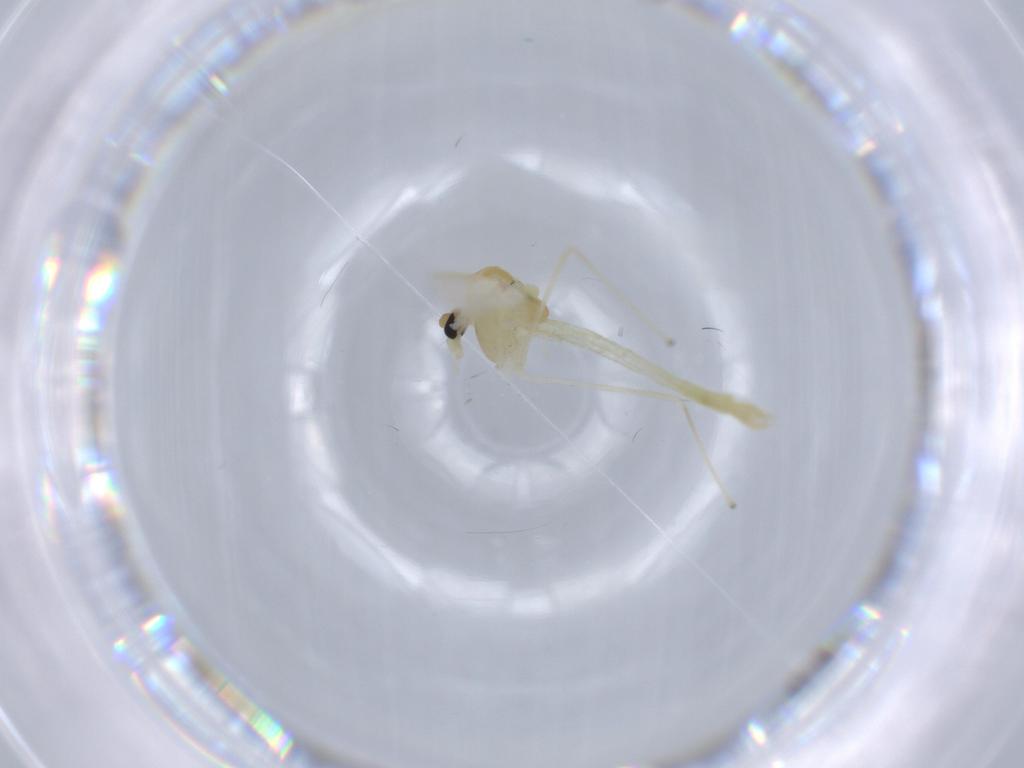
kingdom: Animalia
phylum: Arthropoda
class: Insecta
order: Diptera
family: Chironomidae
